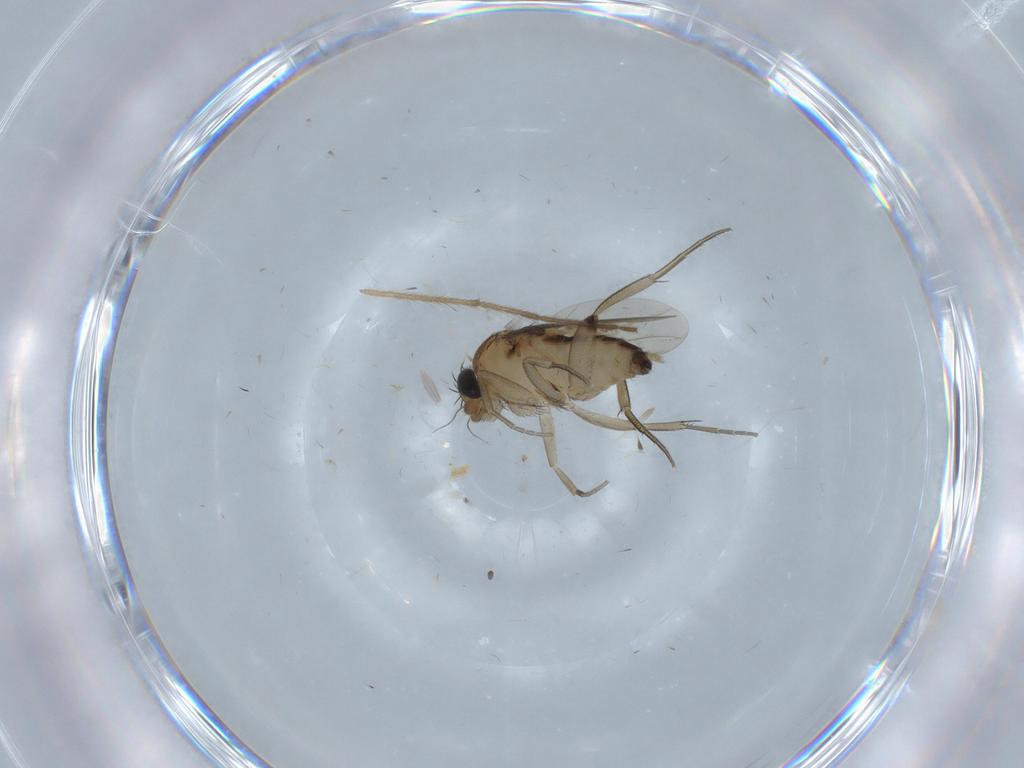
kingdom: Animalia
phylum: Arthropoda
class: Insecta
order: Diptera
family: Phoridae
